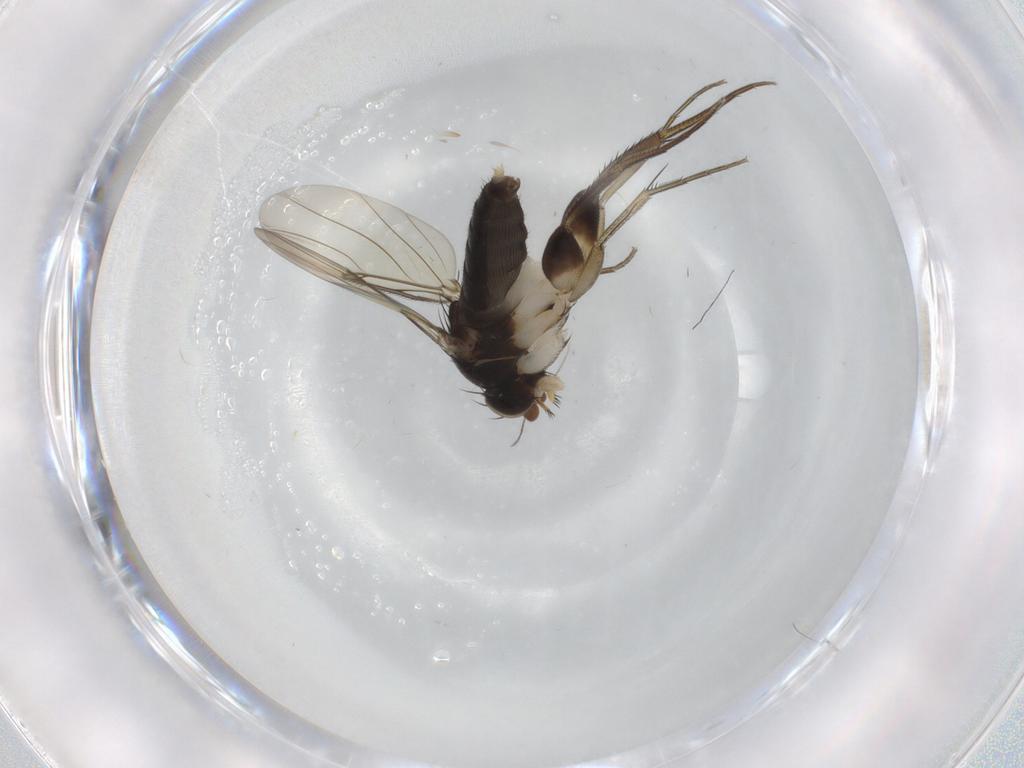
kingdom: Animalia
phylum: Arthropoda
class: Insecta
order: Diptera
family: Phoridae
